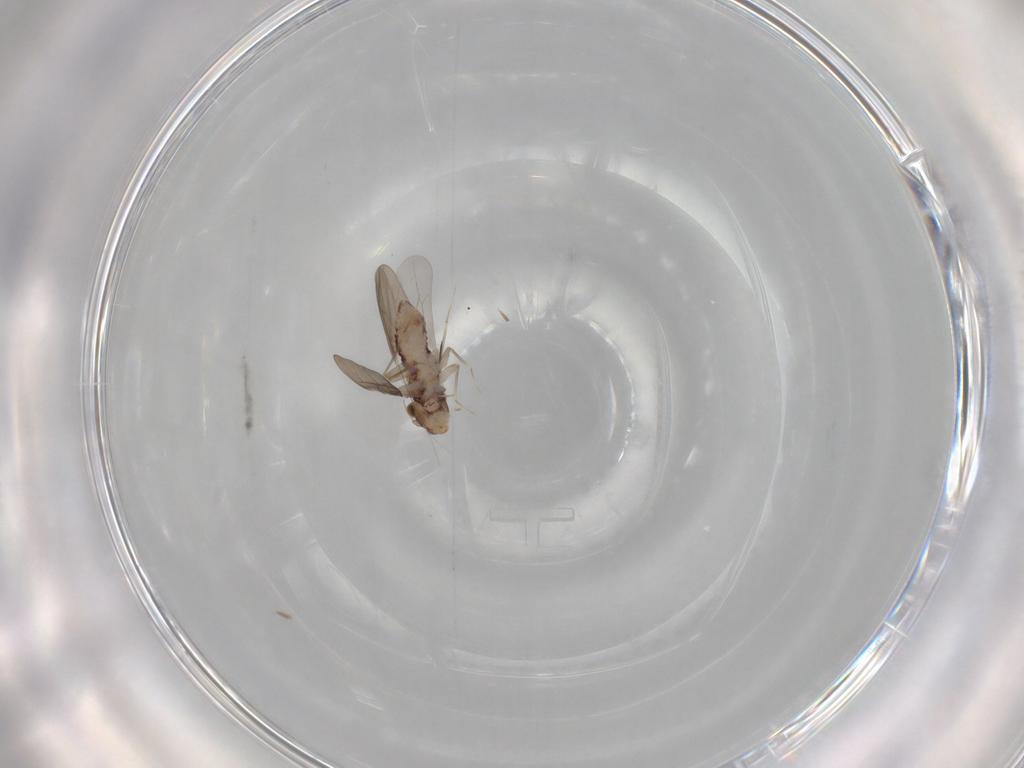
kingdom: Animalia
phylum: Arthropoda
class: Insecta
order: Psocodea
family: Lepidopsocidae
